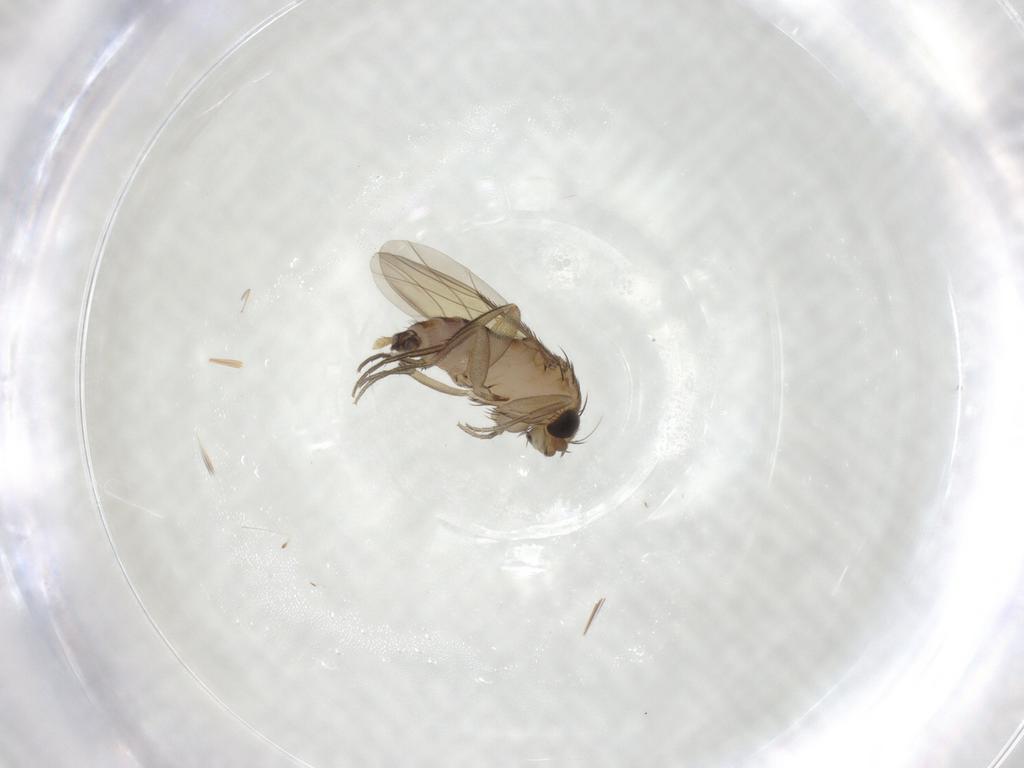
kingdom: Animalia
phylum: Arthropoda
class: Insecta
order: Diptera
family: Phoridae
